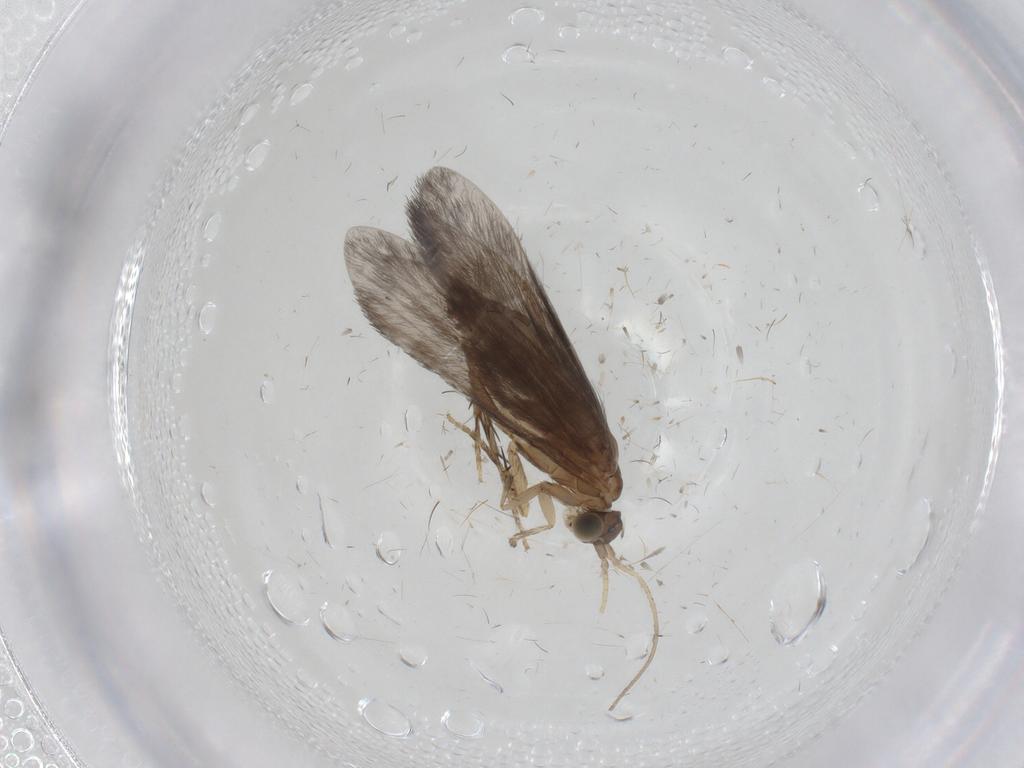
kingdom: Animalia
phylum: Arthropoda
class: Insecta
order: Trichoptera
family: Glossosomatidae
